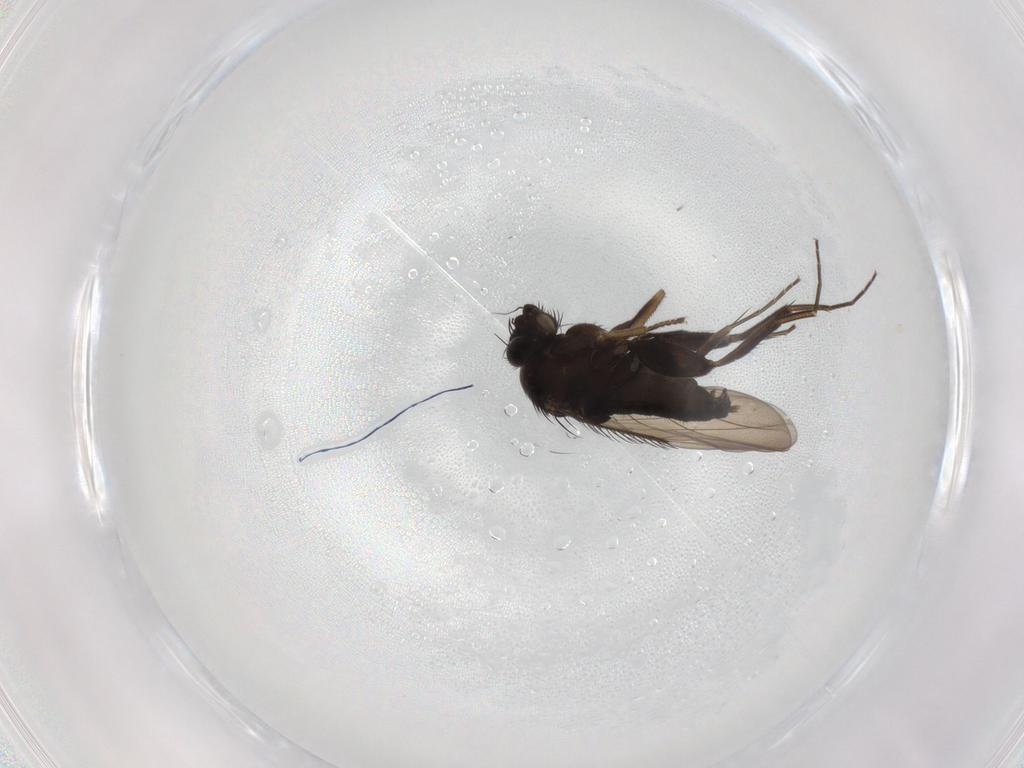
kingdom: Animalia
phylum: Arthropoda
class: Insecta
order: Diptera
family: Phoridae
